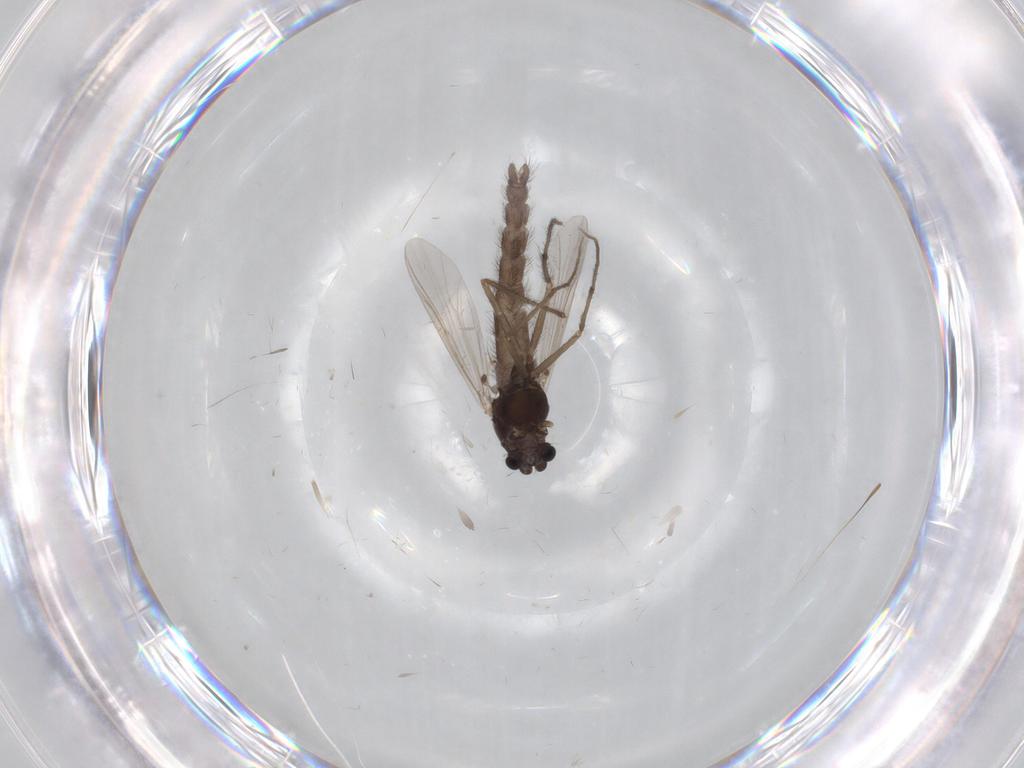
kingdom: Animalia
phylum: Arthropoda
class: Insecta
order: Diptera
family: Chironomidae
